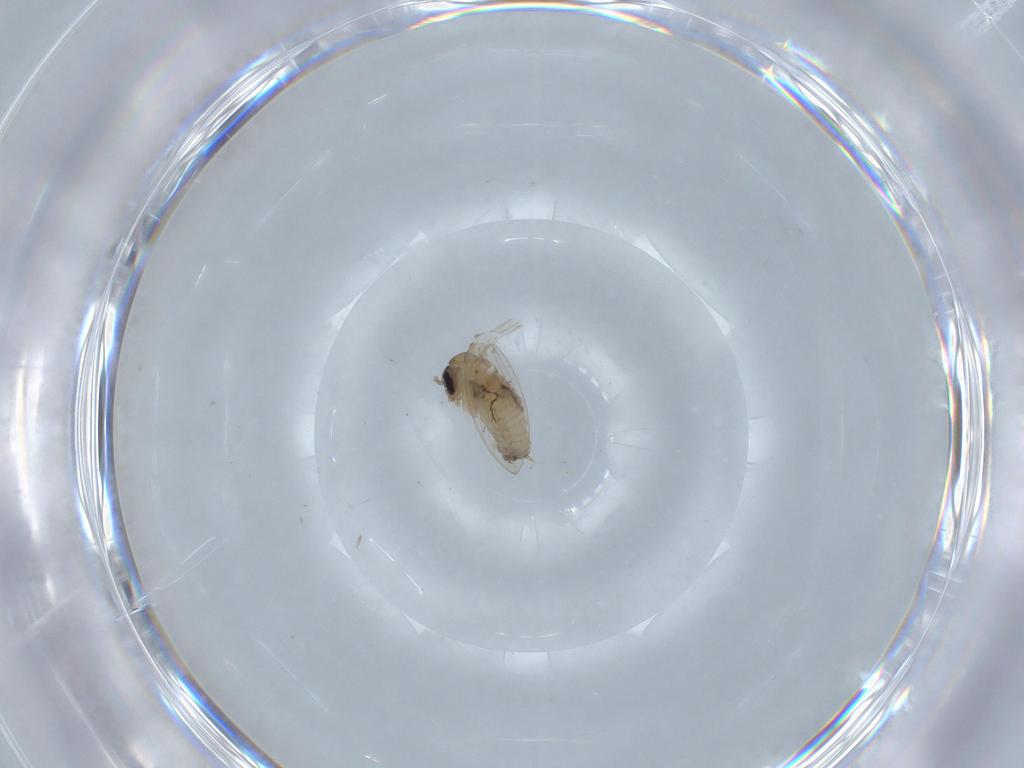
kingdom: Animalia
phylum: Arthropoda
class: Insecta
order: Diptera
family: Psychodidae
